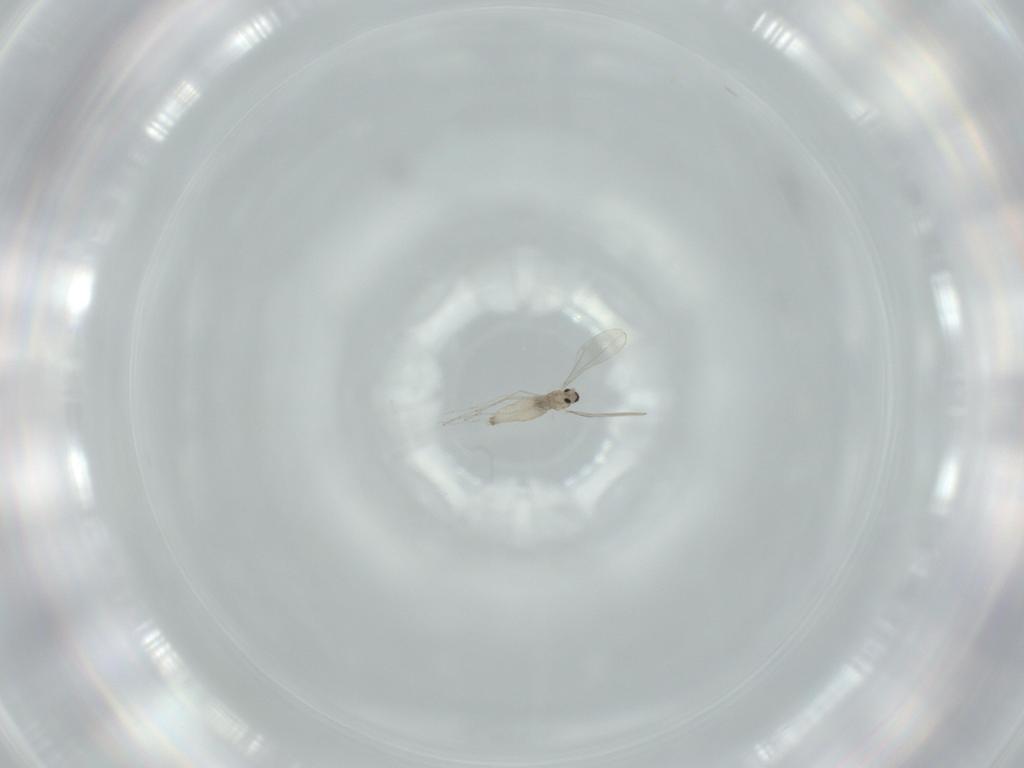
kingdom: Animalia
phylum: Arthropoda
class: Insecta
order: Diptera
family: Cecidomyiidae
